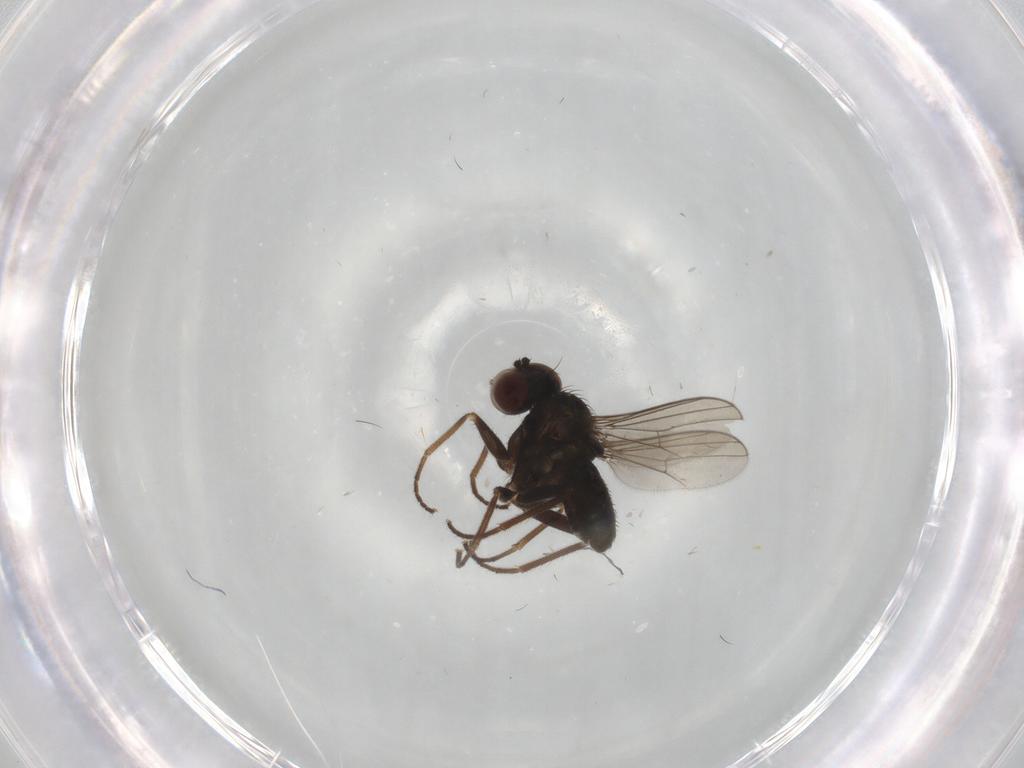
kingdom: Animalia
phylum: Arthropoda
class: Insecta
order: Diptera
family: Dolichopodidae
